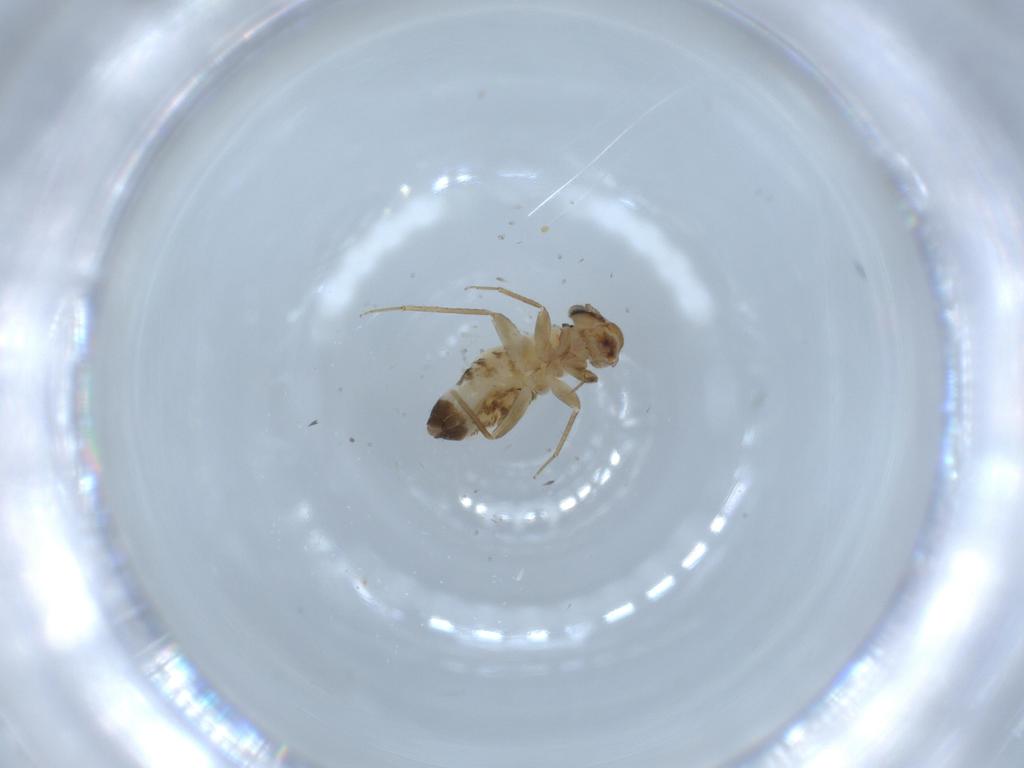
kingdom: Animalia
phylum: Arthropoda
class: Insecta
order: Psocodea
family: Lepidopsocidae
